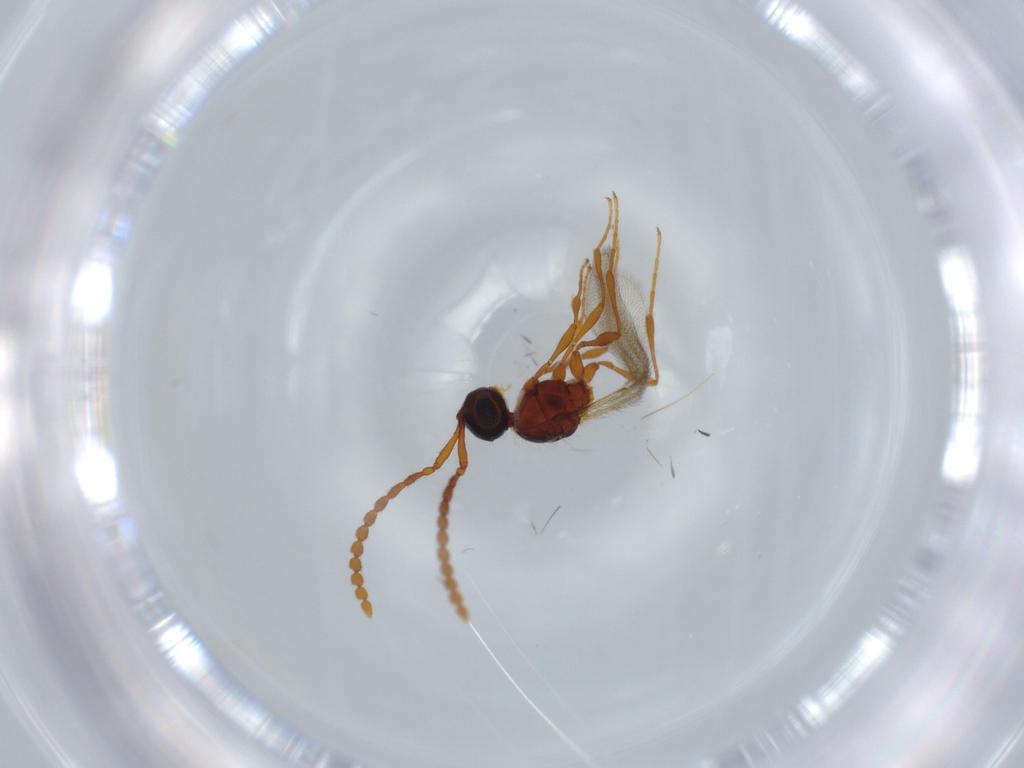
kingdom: Animalia
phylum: Arthropoda
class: Insecta
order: Hymenoptera
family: Diapriidae
